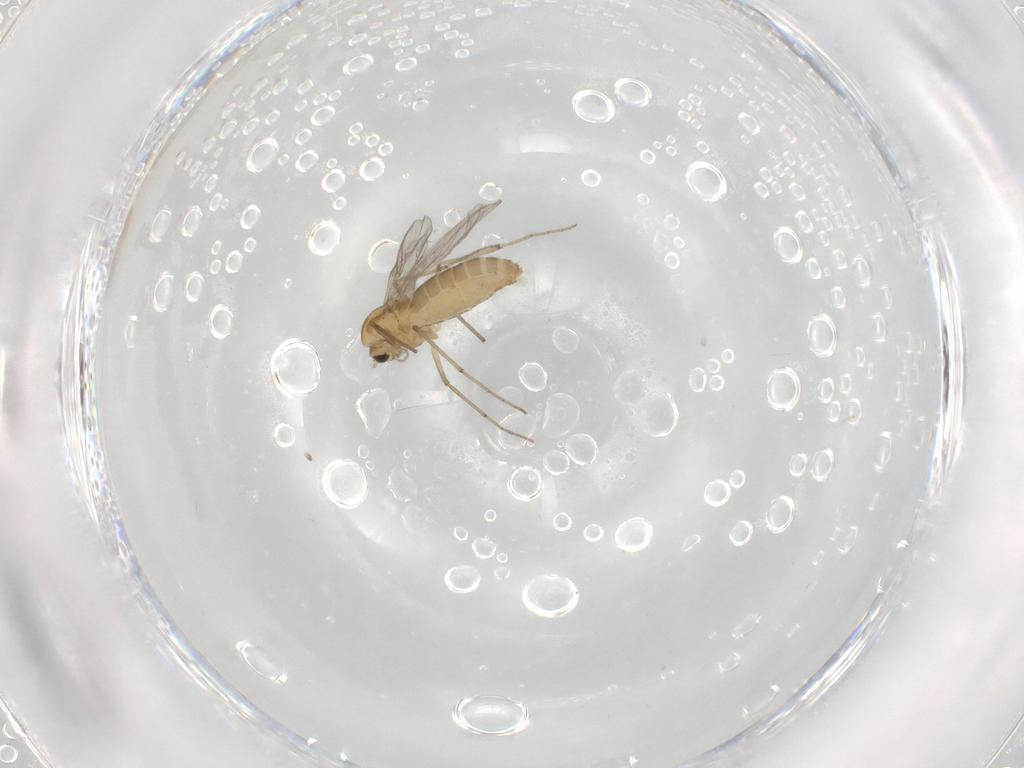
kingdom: Animalia
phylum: Arthropoda
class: Insecta
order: Diptera
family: Chironomidae
